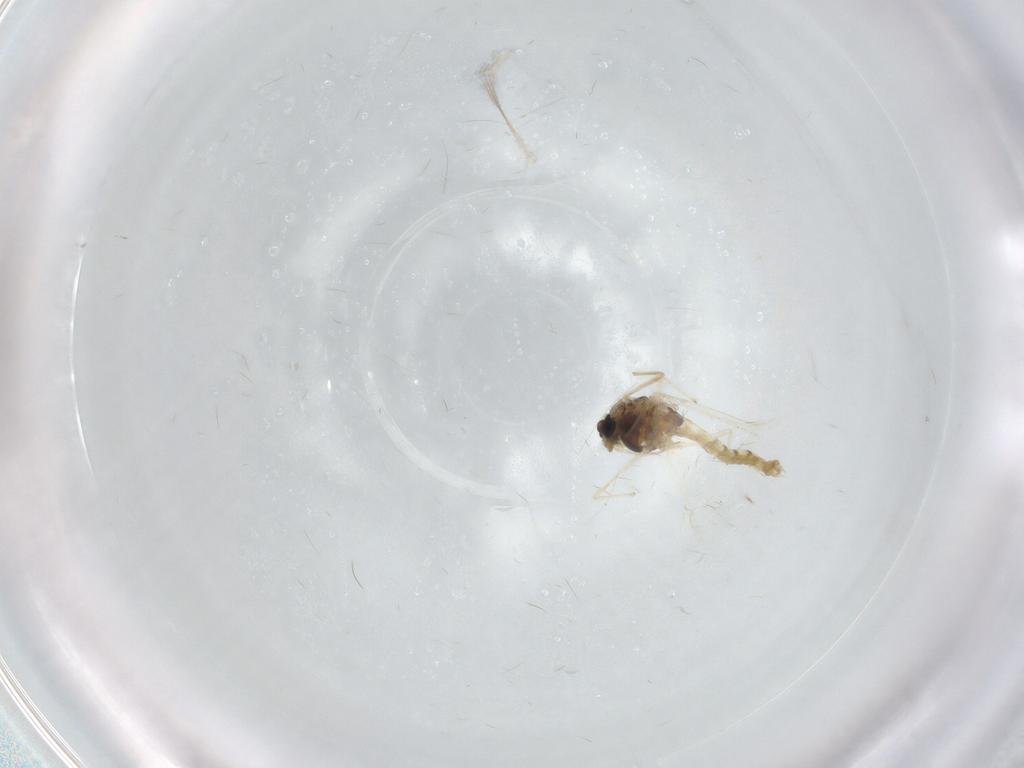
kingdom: Animalia
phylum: Arthropoda
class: Insecta
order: Diptera
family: Chironomidae
